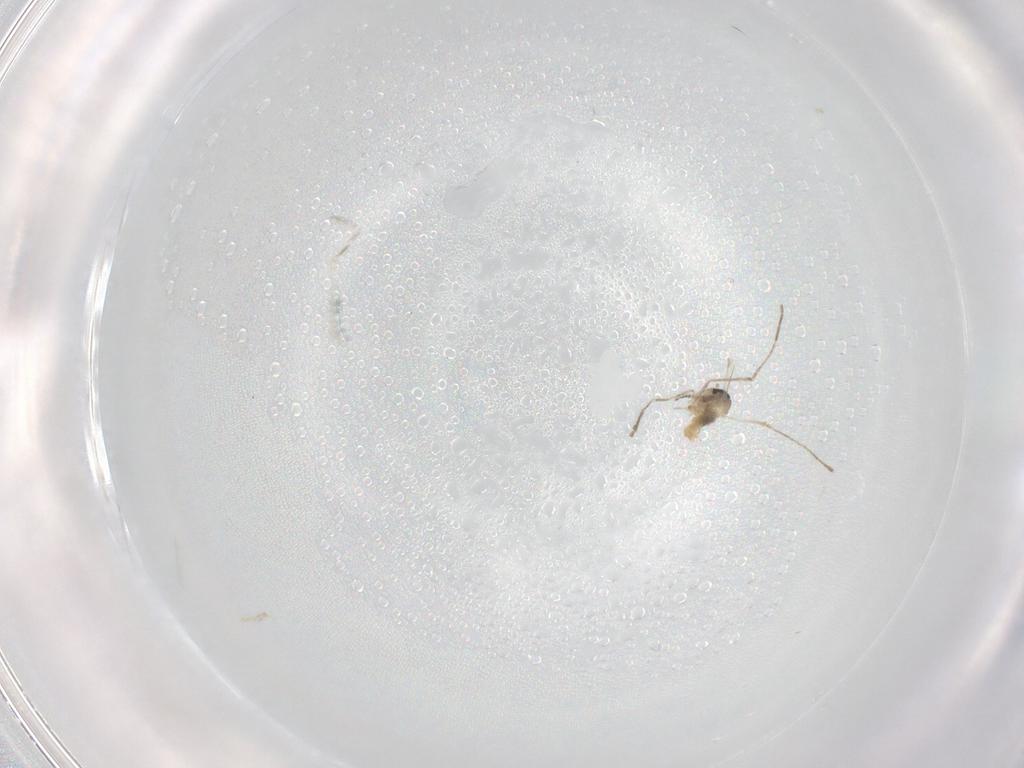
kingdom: Animalia
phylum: Arthropoda
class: Insecta
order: Diptera
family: Cecidomyiidae
